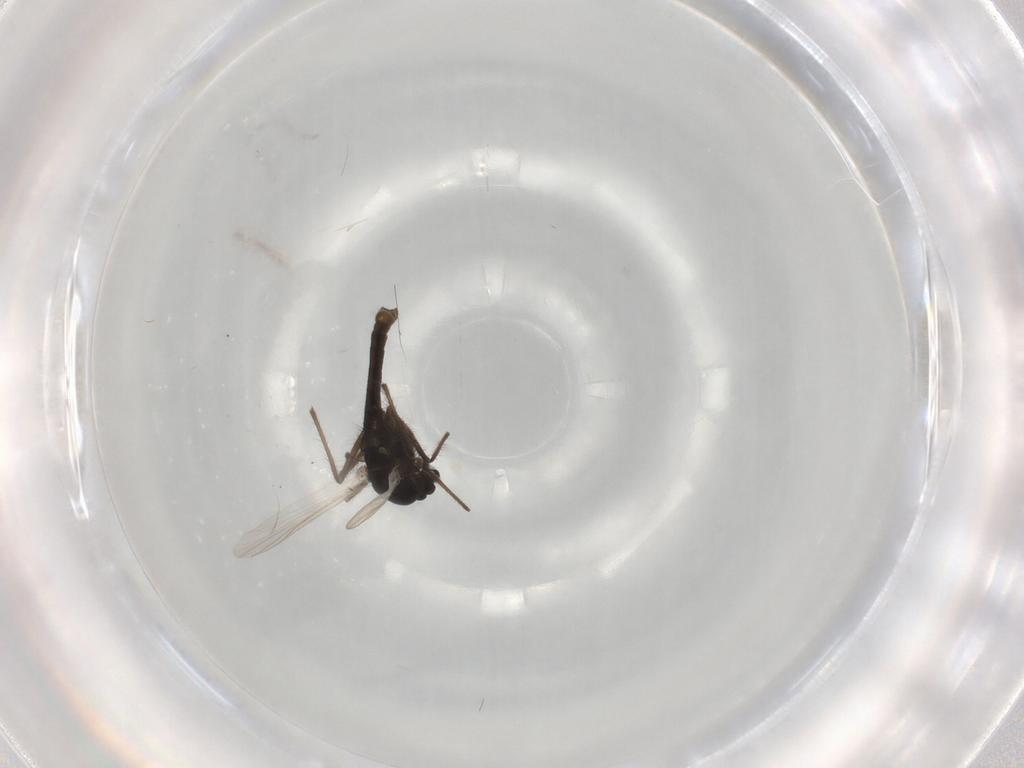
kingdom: Animalia
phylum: Arthropoda
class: Insecta
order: Diptera
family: Chironomidae
